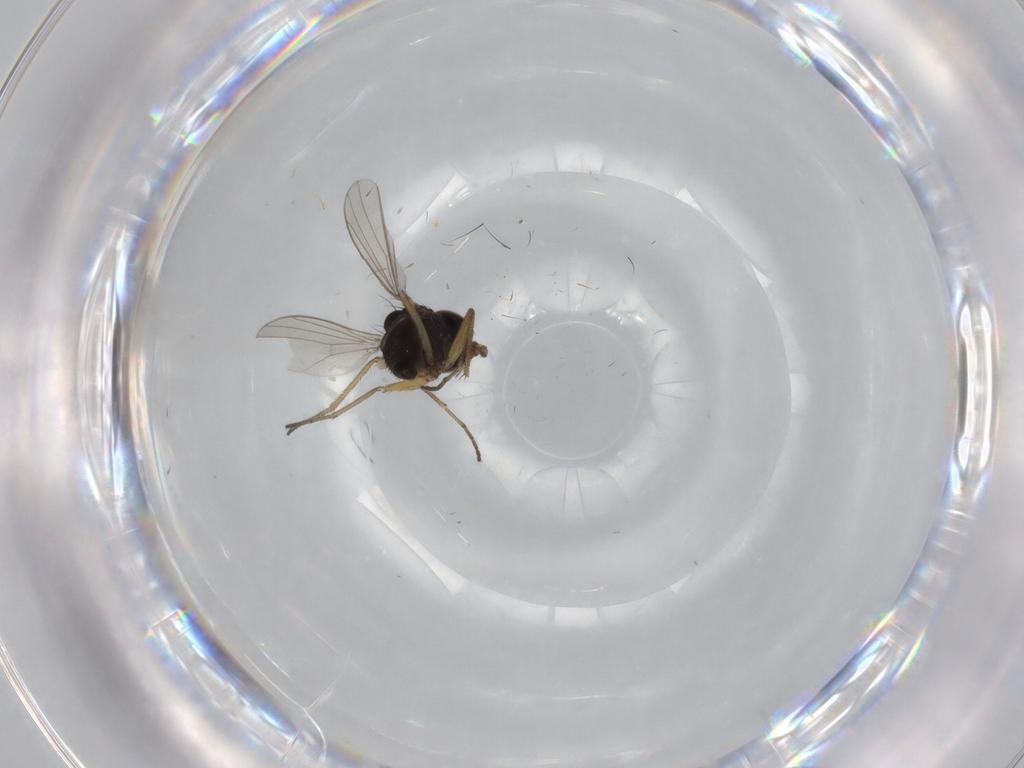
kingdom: Animalia
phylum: Arthropoda
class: Insecta
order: Diptera
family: Dolichopodidae
